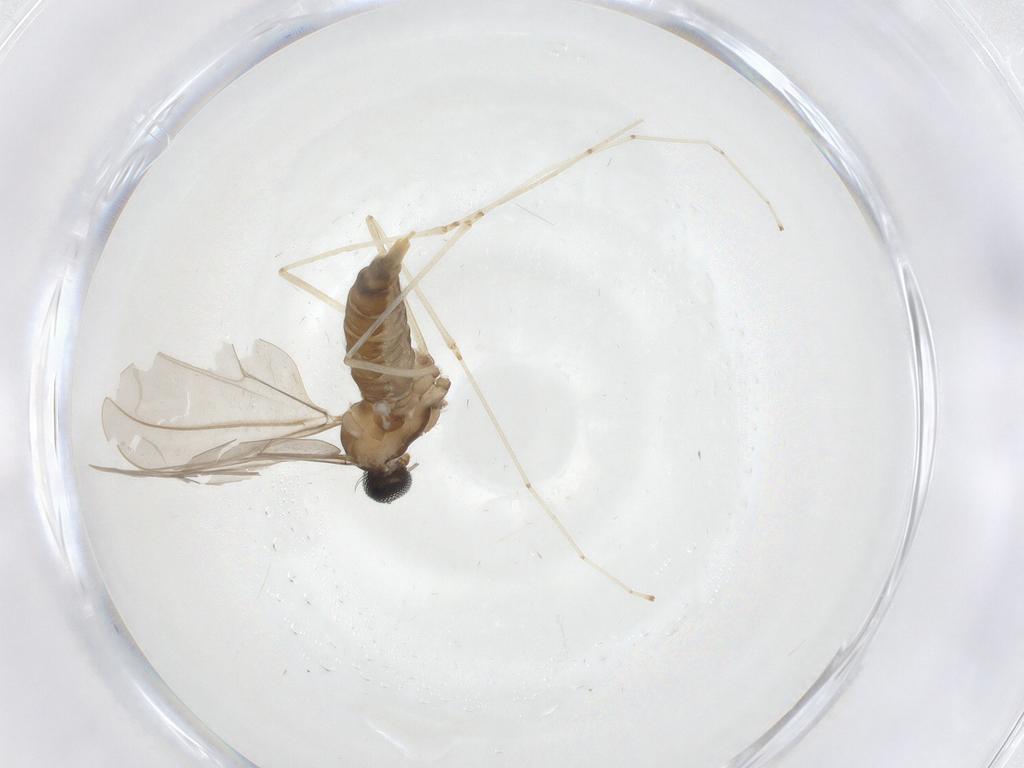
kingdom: Animalia
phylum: Arthropoda
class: Insecta
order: Diptera
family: Cecidomyiidae
